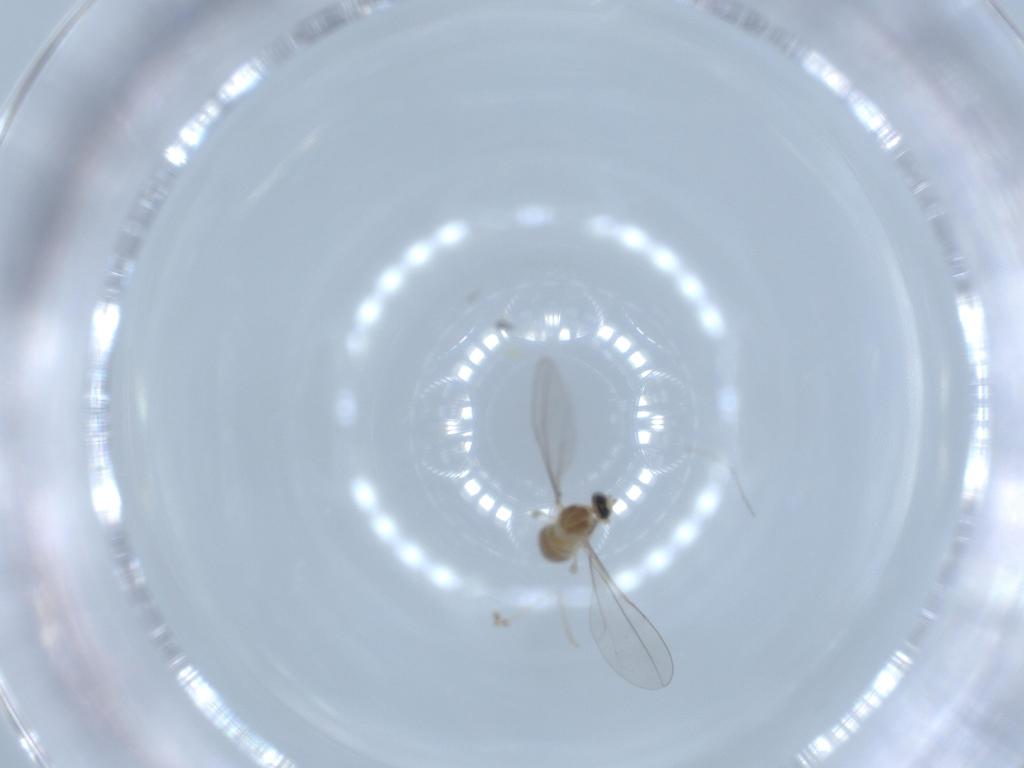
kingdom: Animalia
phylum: Arthropoda
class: Insecta
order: Diptera
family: Cecidomyiidae
